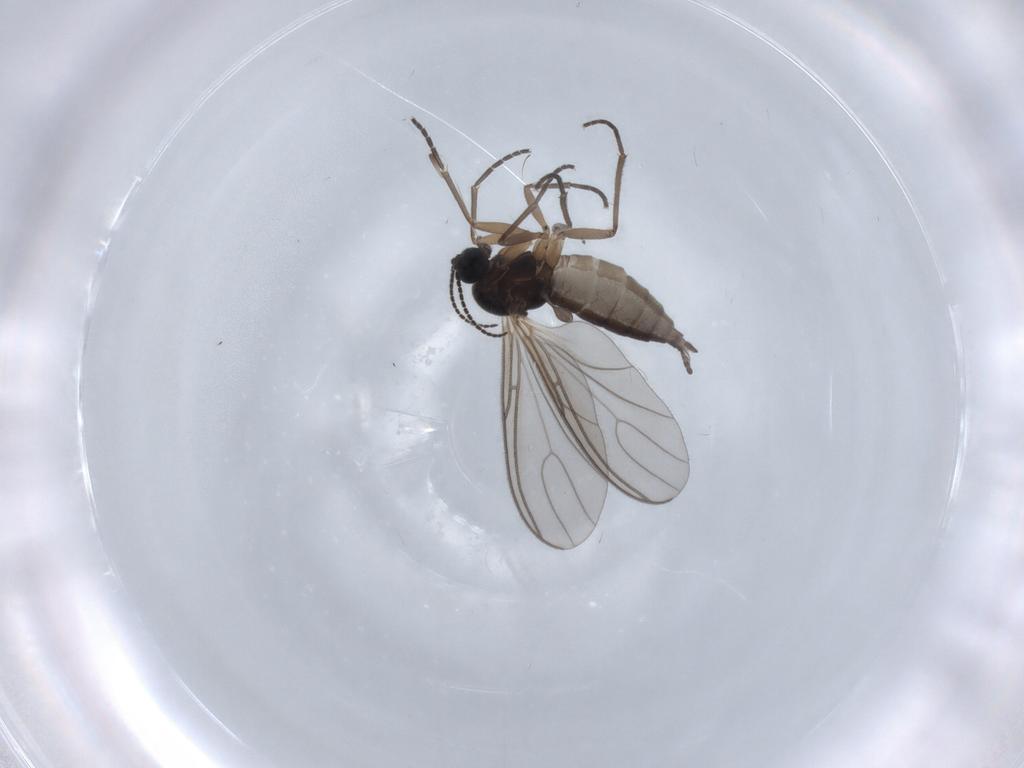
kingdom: Animalia
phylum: Arthropoda
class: Insecta
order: Diptera
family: Sciaridae
